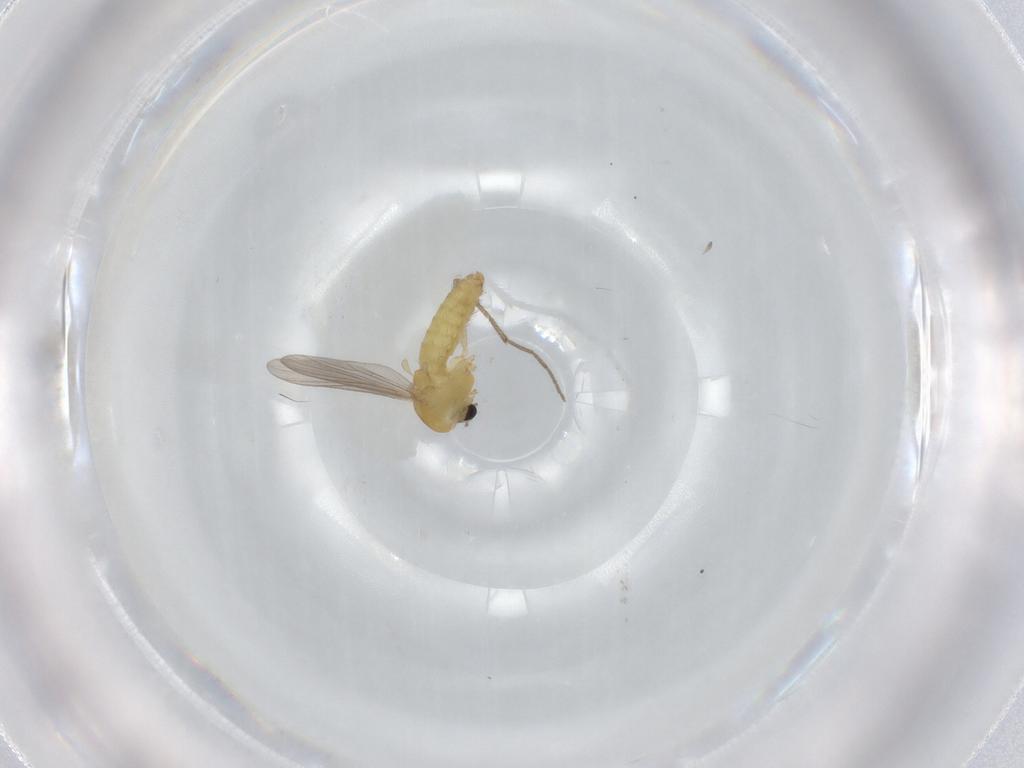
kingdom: Animalia
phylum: Arthropoda
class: Insecta
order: Diptera
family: Chironomidae
